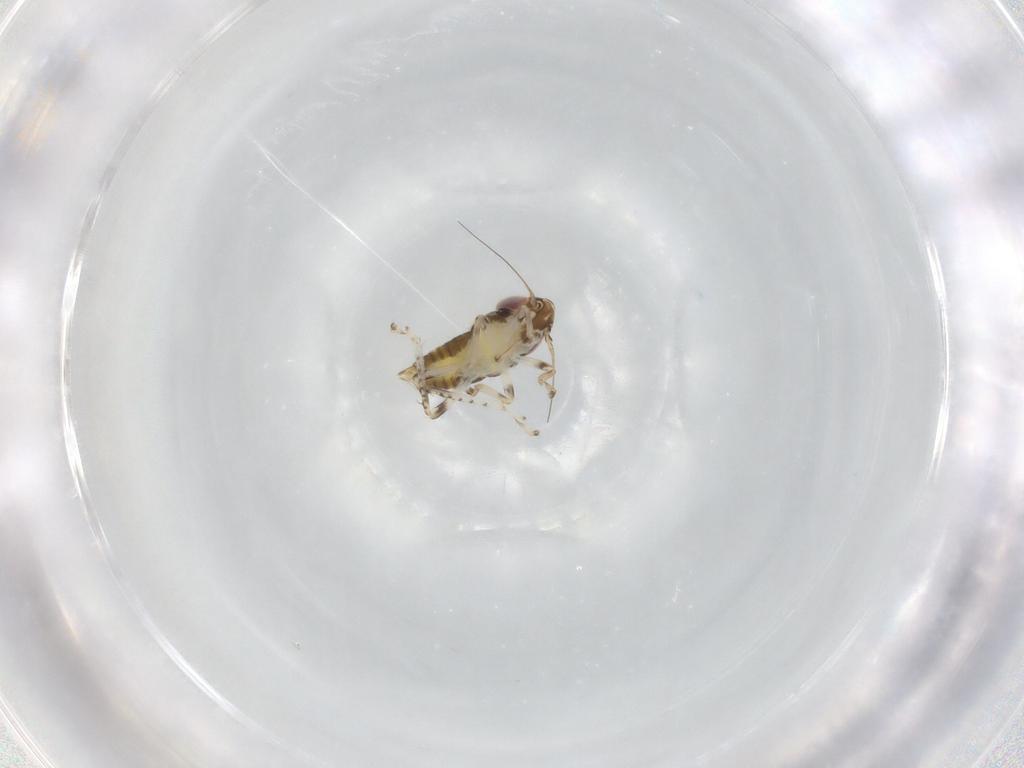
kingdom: Animalia
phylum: Arthropoda
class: Insecta
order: Hemiptera
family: Cicadellidae
